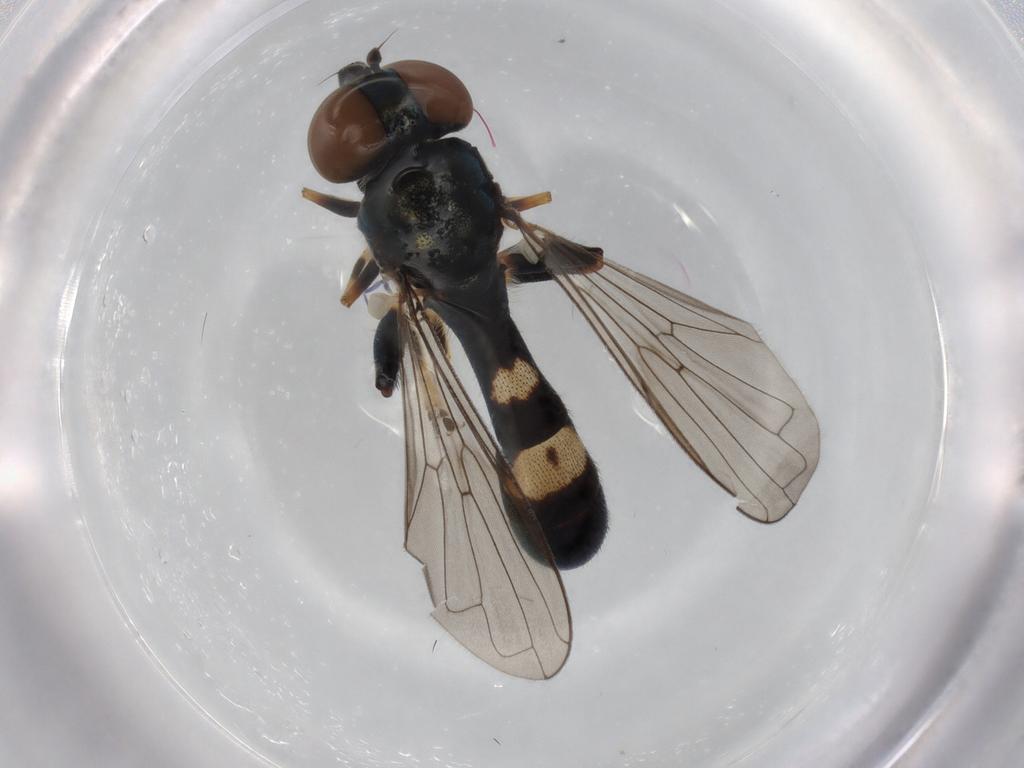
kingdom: Animalia
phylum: Arthropoda
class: Insecta
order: Diptera
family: Syrphidae
